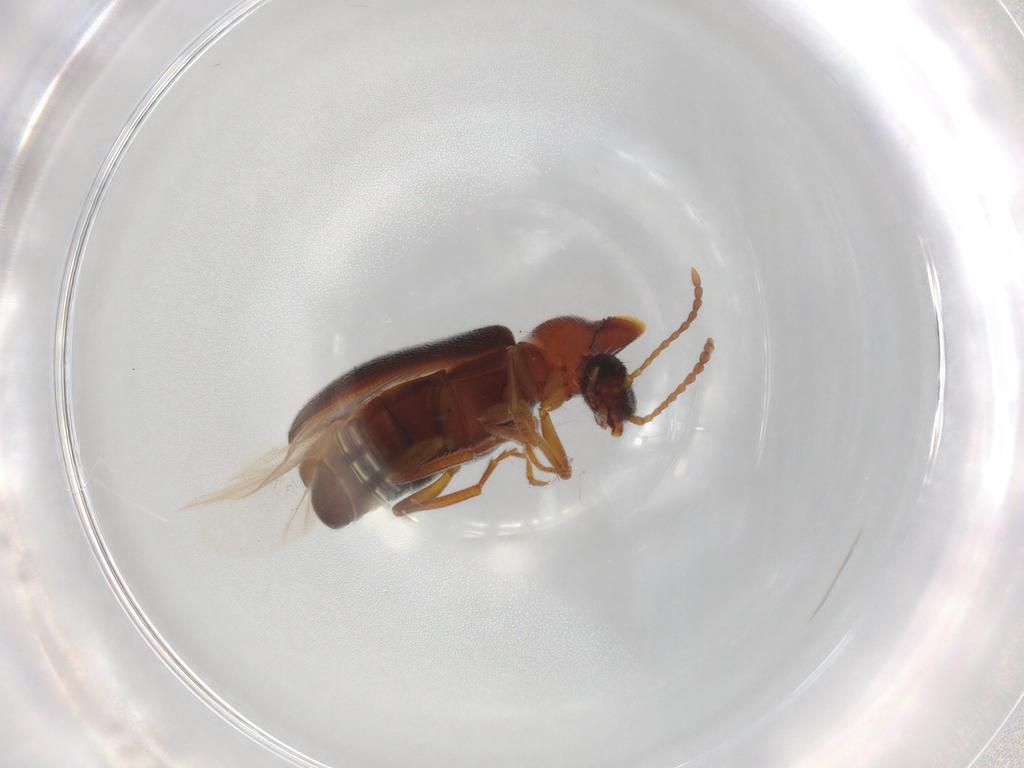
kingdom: Animalia
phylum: Arthropoda
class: Insecta
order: Coleoptera
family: Anthicidae
